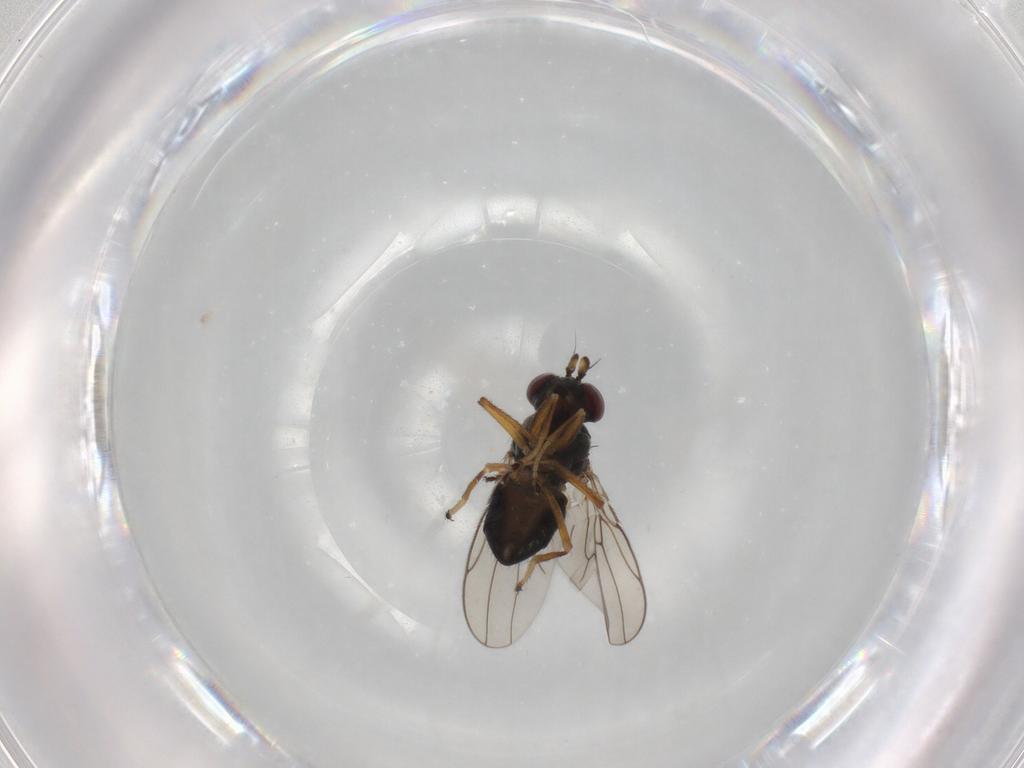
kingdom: Animalia
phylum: Arthropoda
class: Insecta
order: Diptera
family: Ephydridae
